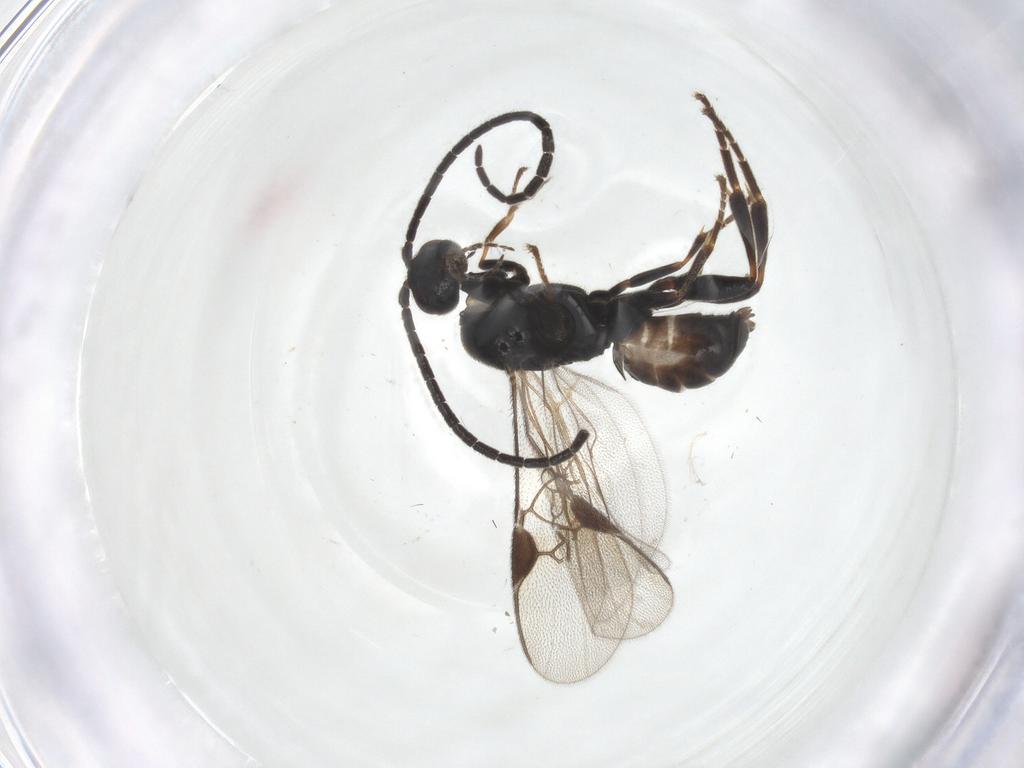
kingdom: Animalia
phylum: Arthropoda
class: Insecta
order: Hymenoptera
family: Braconidae
